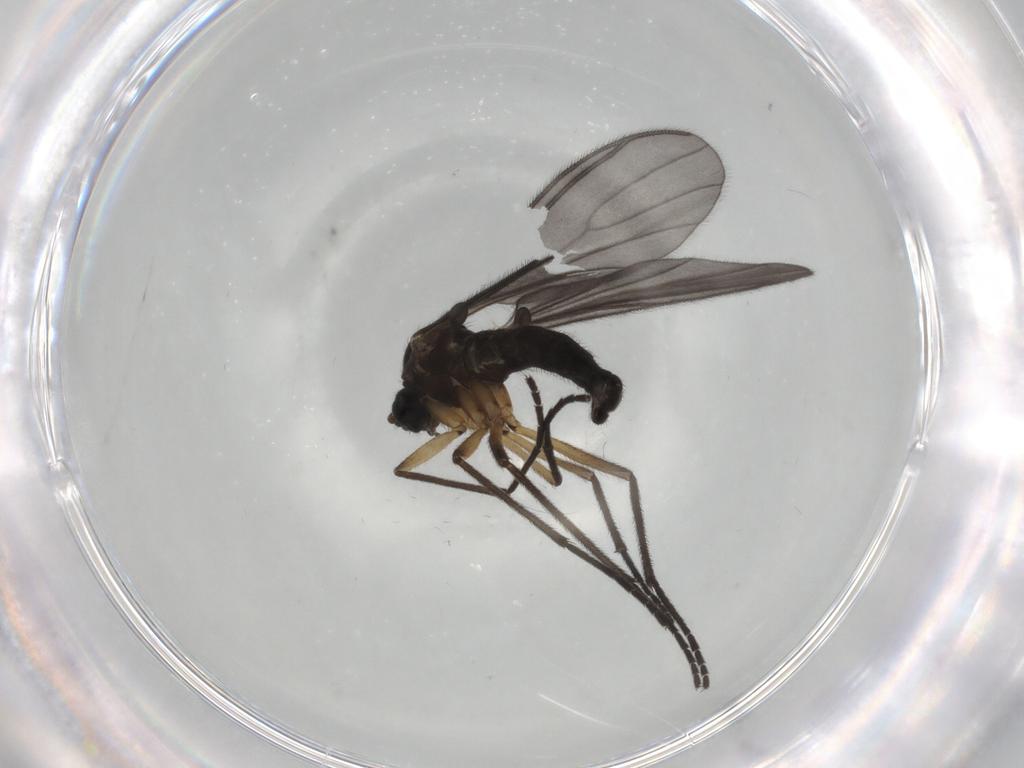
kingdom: Animalia
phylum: Arthropoda
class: Insecta
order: Diptera
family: Sciaridae
